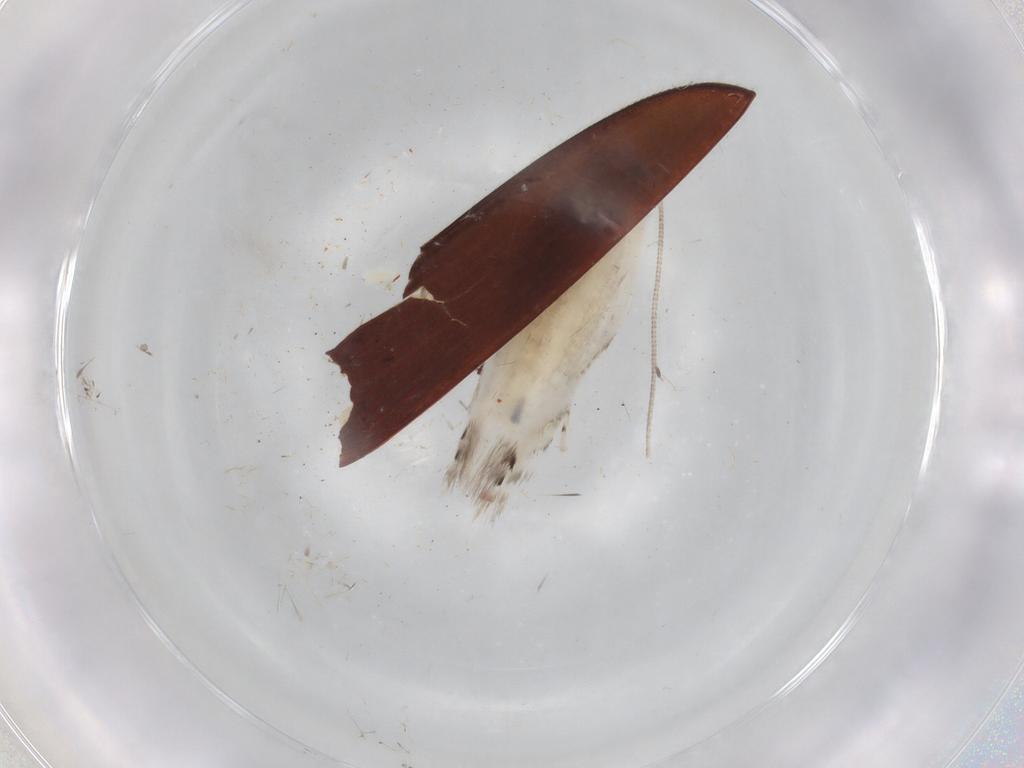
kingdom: Animalia
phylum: Arthropoda
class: Insecta
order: Coleoptera
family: Eucnemidae
